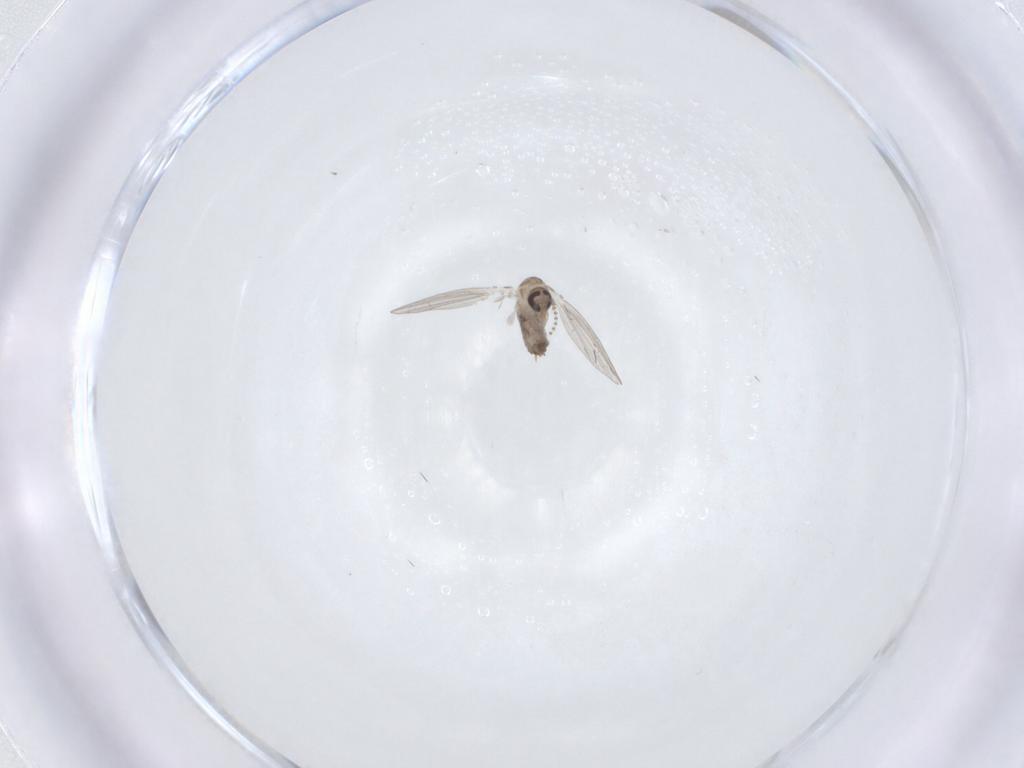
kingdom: Animalia
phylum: Arthropoda
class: Insecta
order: Diptera
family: Psychodidae
